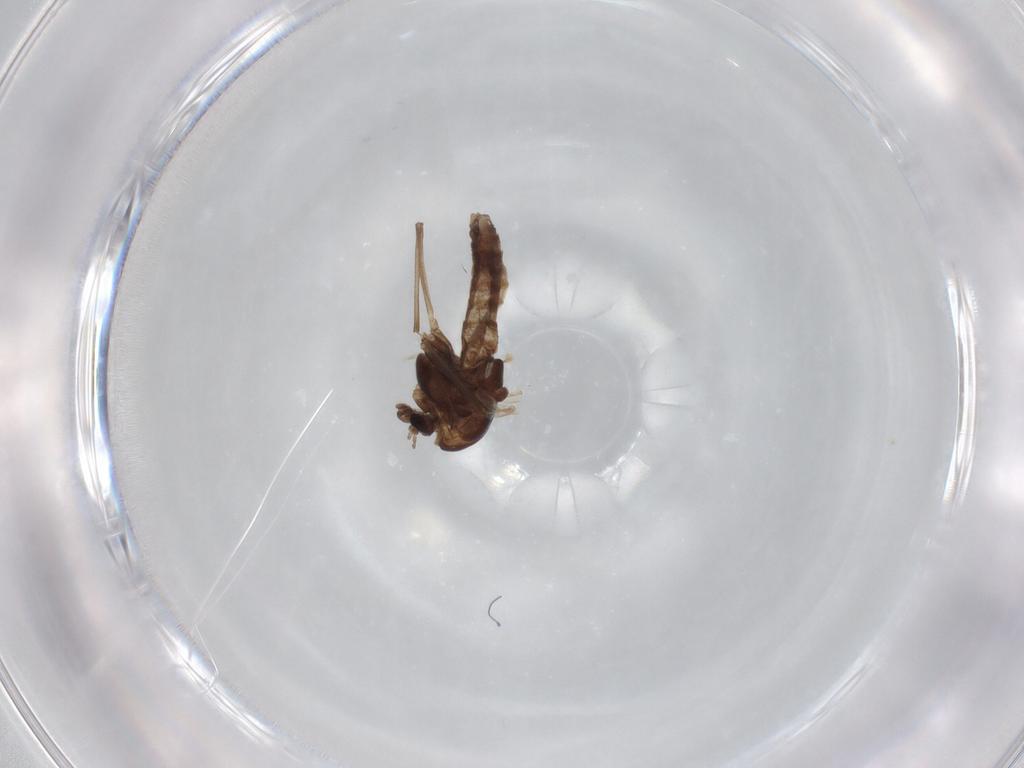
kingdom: Animalia
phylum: Arthropoda
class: Insecta
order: Diptera
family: Chironomidae
